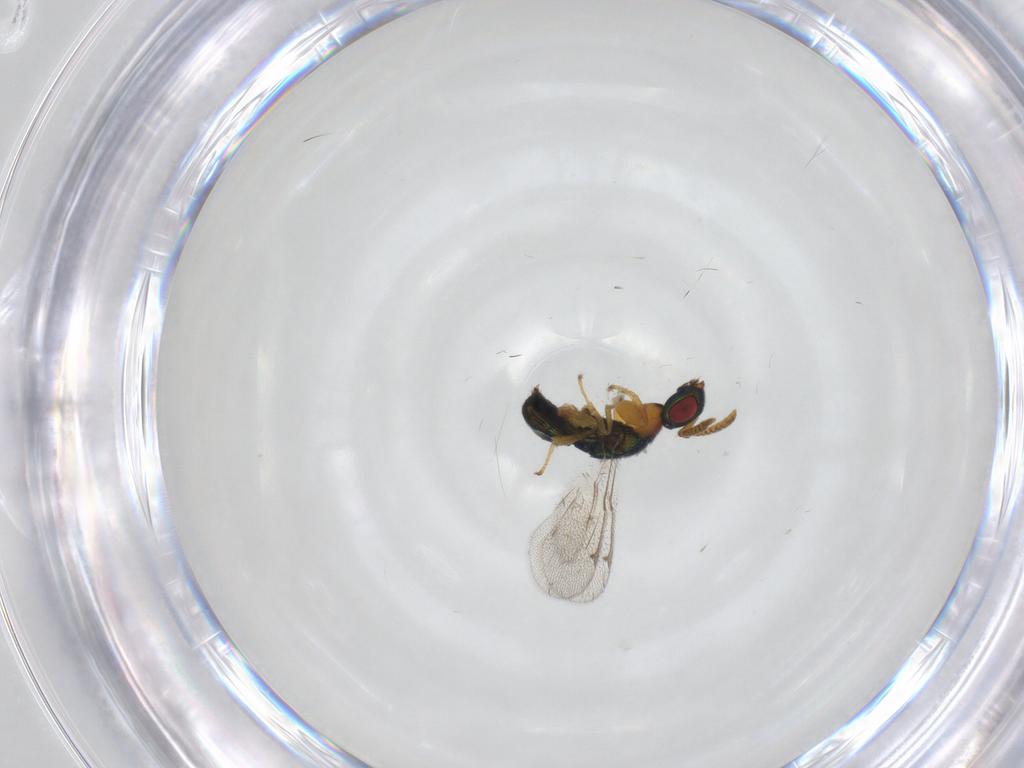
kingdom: Animalia
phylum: Arthropoda
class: Insecta
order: Hymenoptera
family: Torymidae
